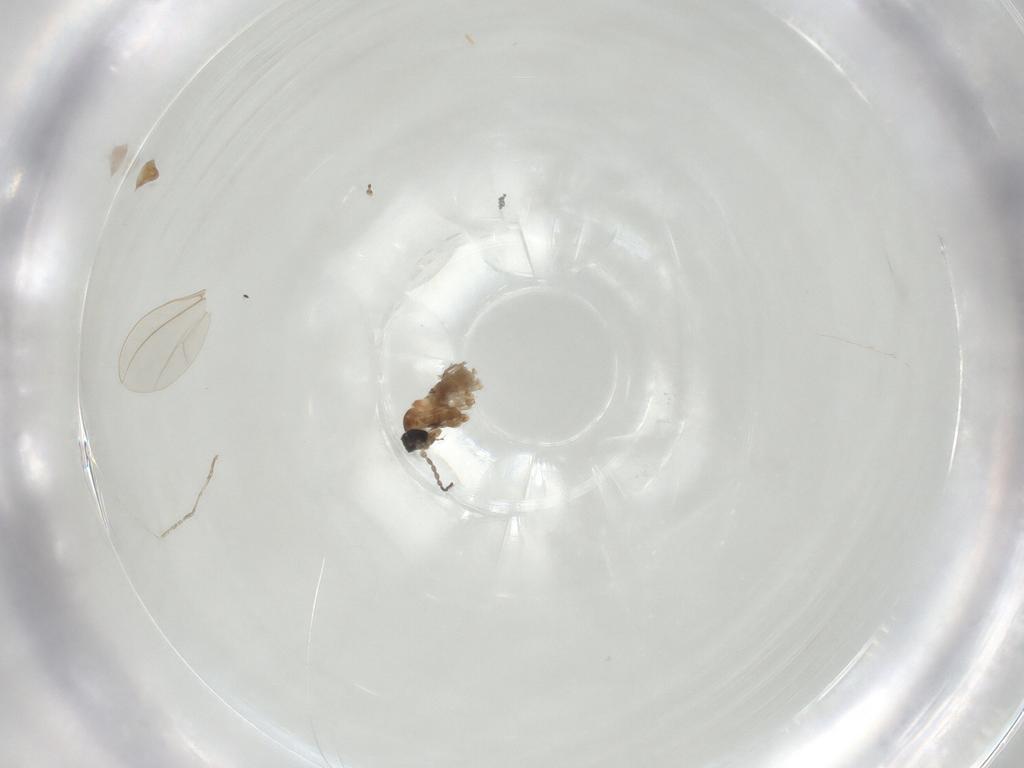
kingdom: Animalia
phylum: Arthropoda
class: Insecta
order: Diptera
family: Cecidomyiidae
